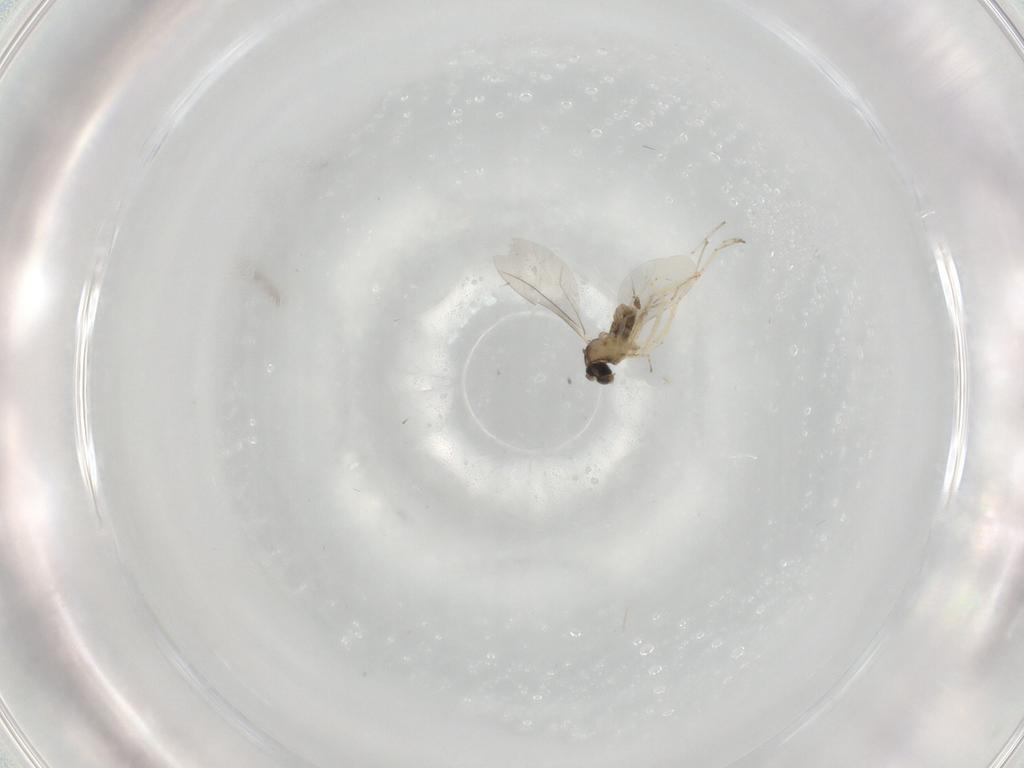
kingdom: Animalia
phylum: Arthropoda
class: Insecta
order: Diptera
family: Cecidomyiidae
